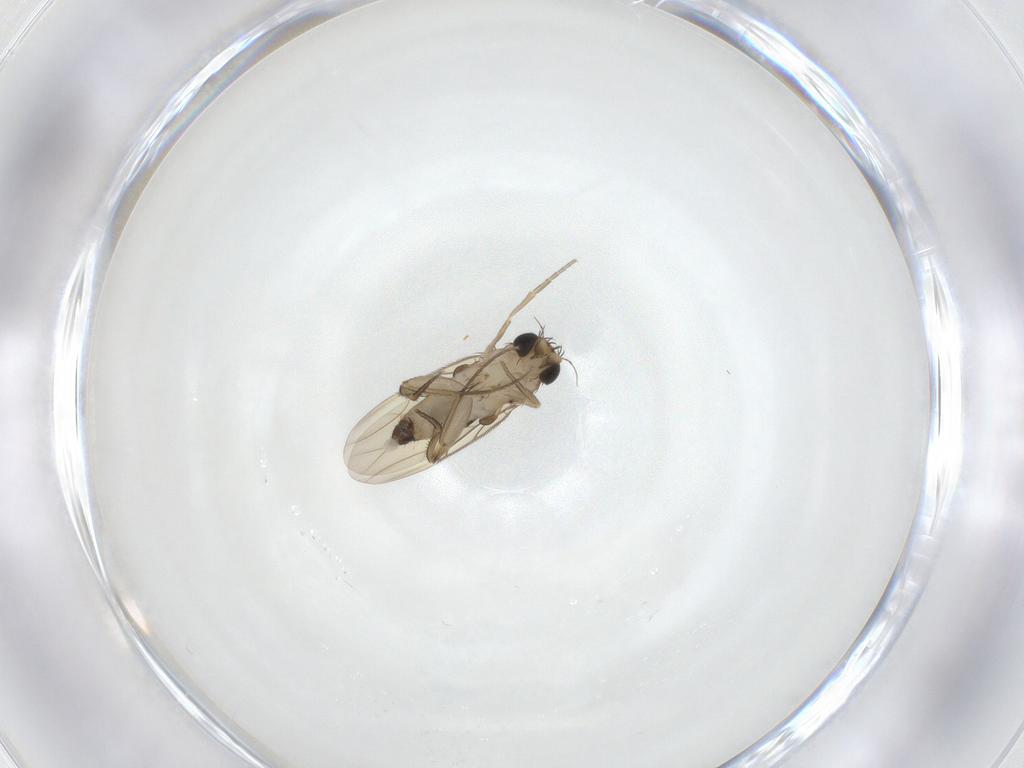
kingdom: Animalia
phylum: Arthropoda
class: Insecta
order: Diptera
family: Phoridae
